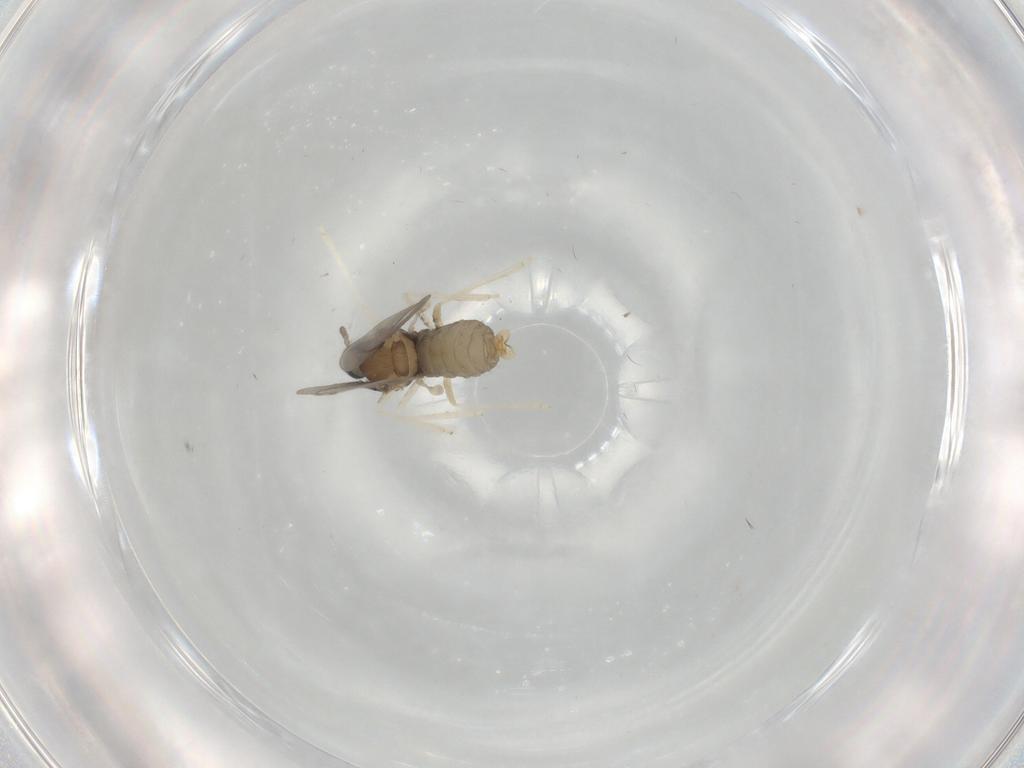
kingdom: Animalia
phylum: Arthropoda
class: Insecta
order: Diptera
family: Cecidomyiidae
